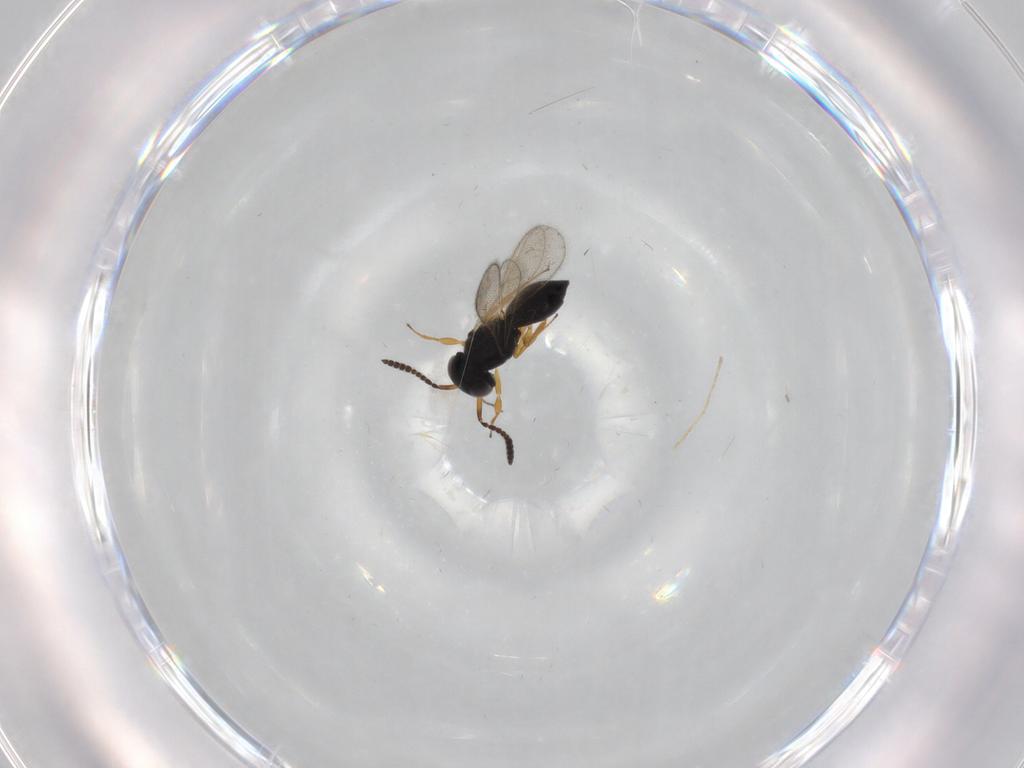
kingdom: Animalia
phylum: Arthropoda
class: Insecta
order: Hymenoptera
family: Scelionidae
